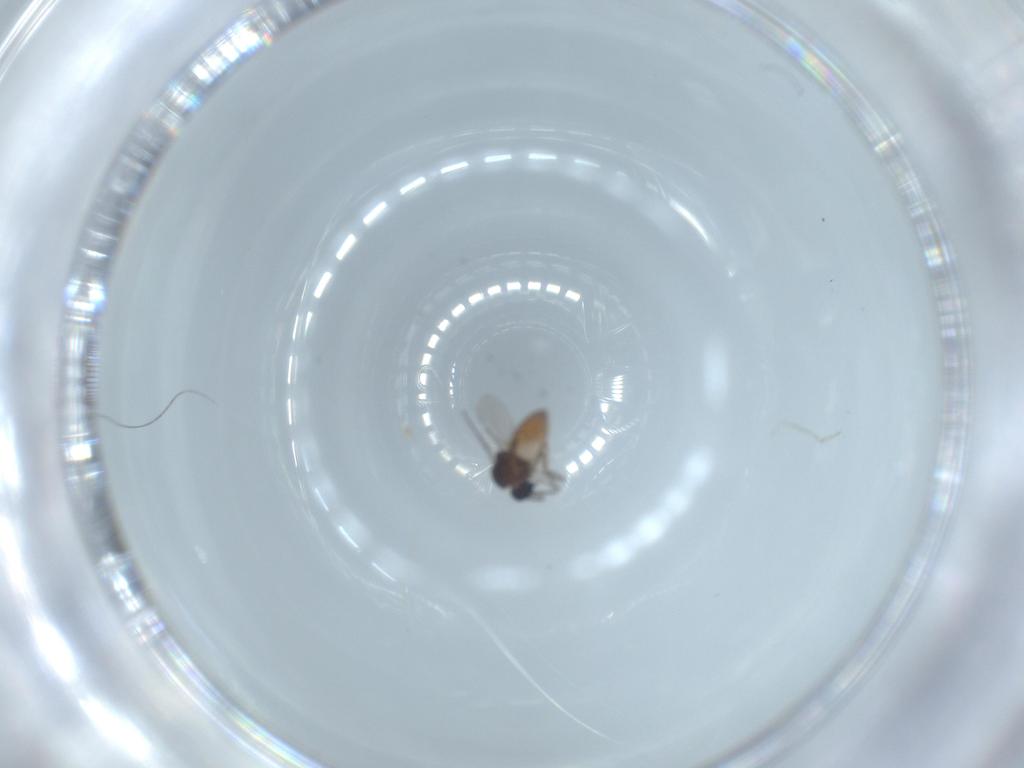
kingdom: Animalia
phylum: Arthropoda
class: Insecta
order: Diptera
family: Ceratopogonidae
